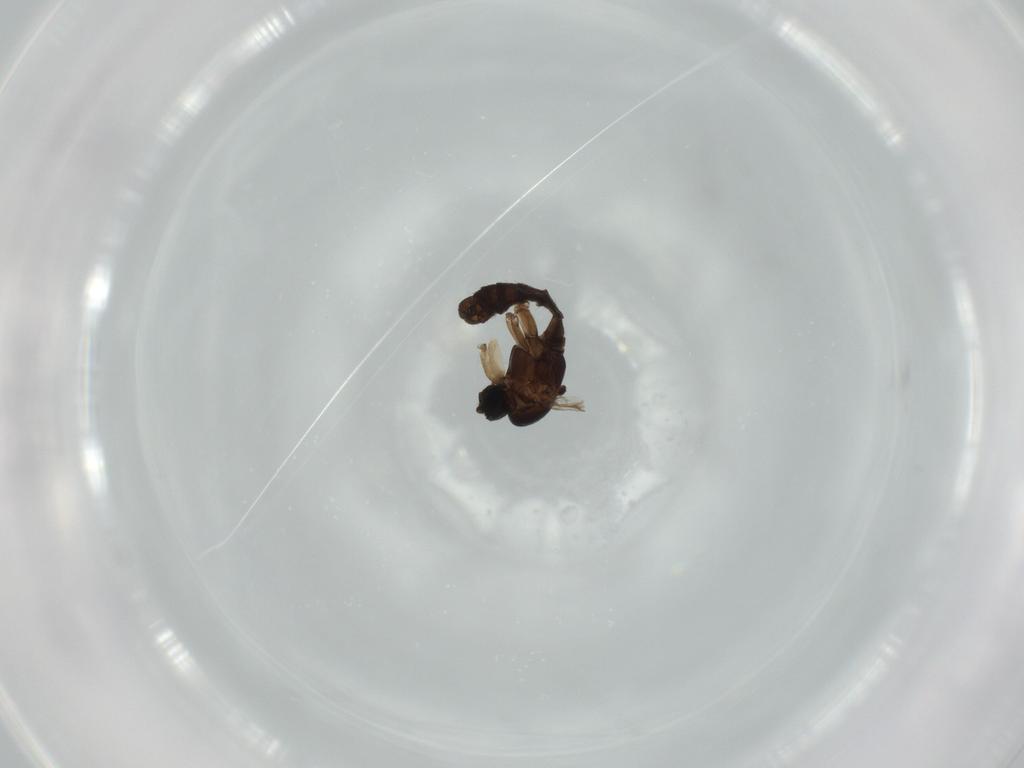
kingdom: Animalia
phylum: Arthropoda
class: Insecta
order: Diptera
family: Sciaridae
